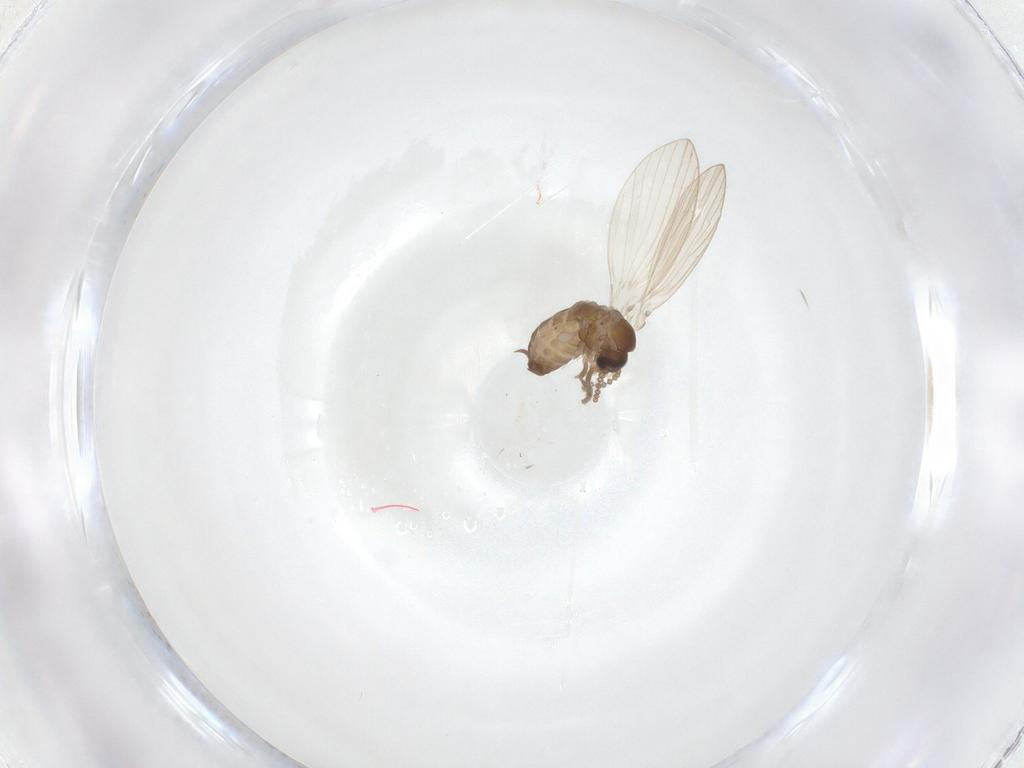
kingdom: Animalia
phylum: Arthropoda
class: Insecta
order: Diptera
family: Psychodidae
